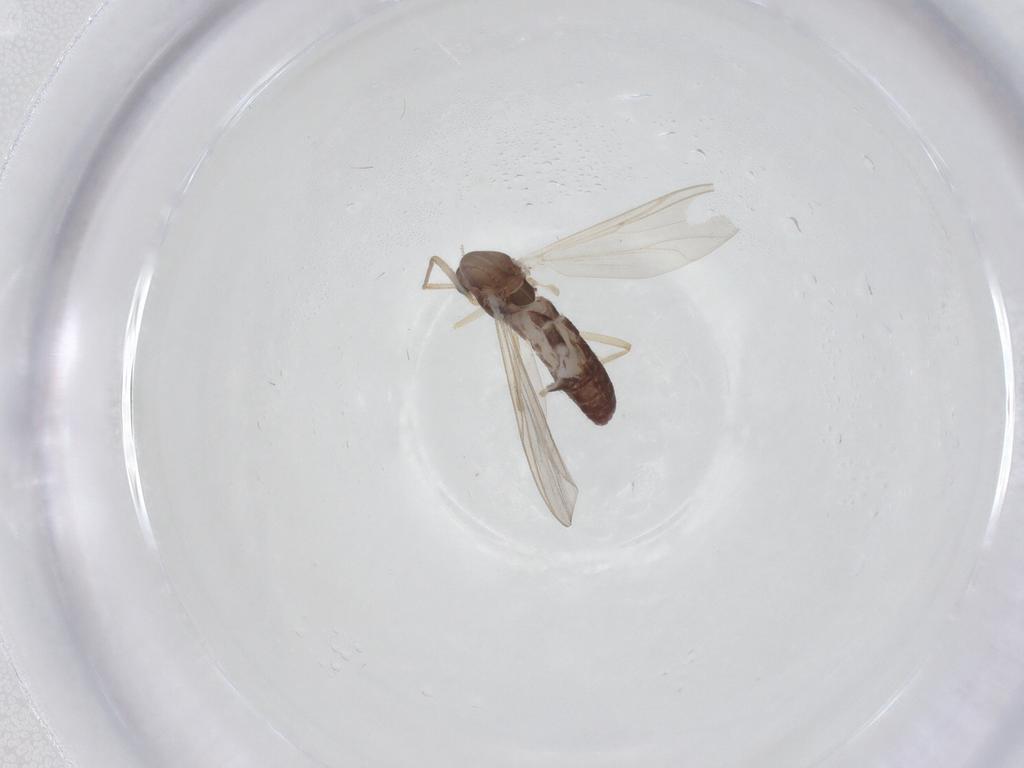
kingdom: Animalia
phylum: Arthropoda
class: Insecta
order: Diptera
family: Chironomidae
